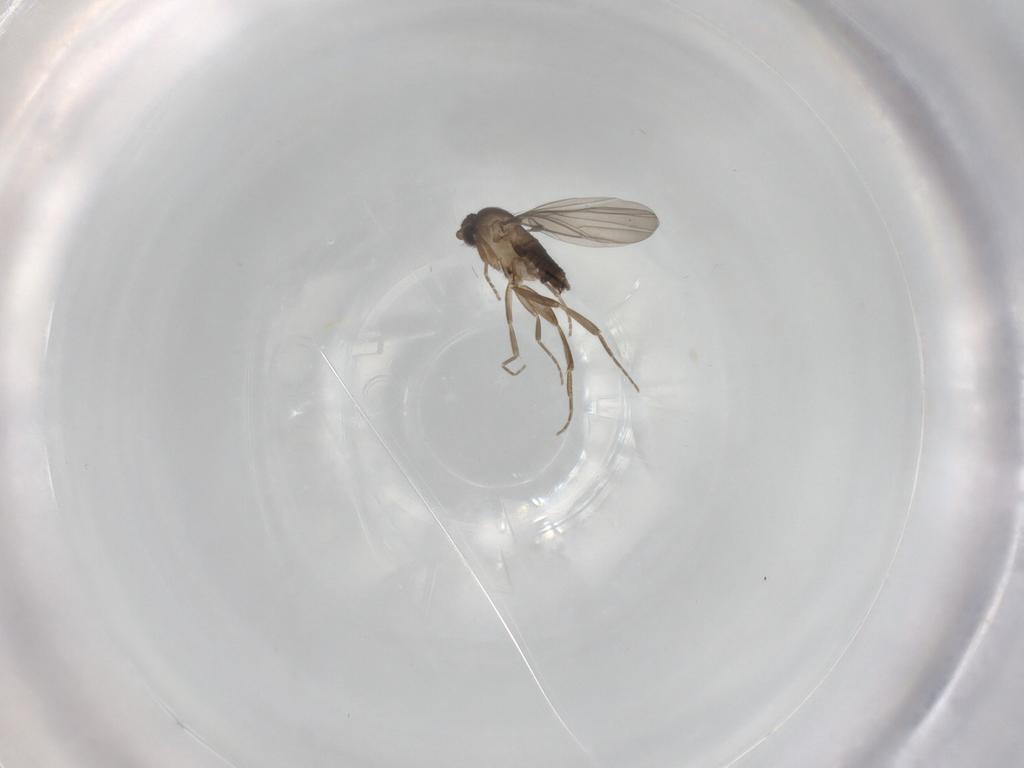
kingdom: Animalia
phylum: Arthropoda
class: Insecta
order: Diptera
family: Phoridae
